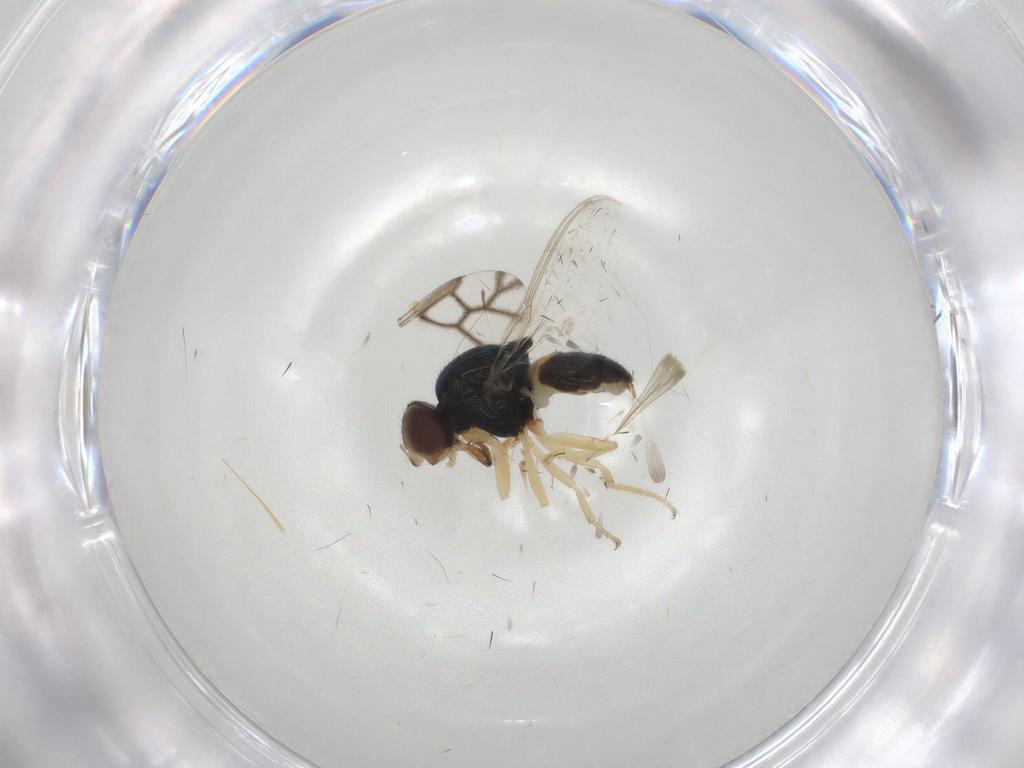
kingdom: Animalia
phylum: Arthropoda
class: Insecta
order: Diptera
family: Chloropidae
